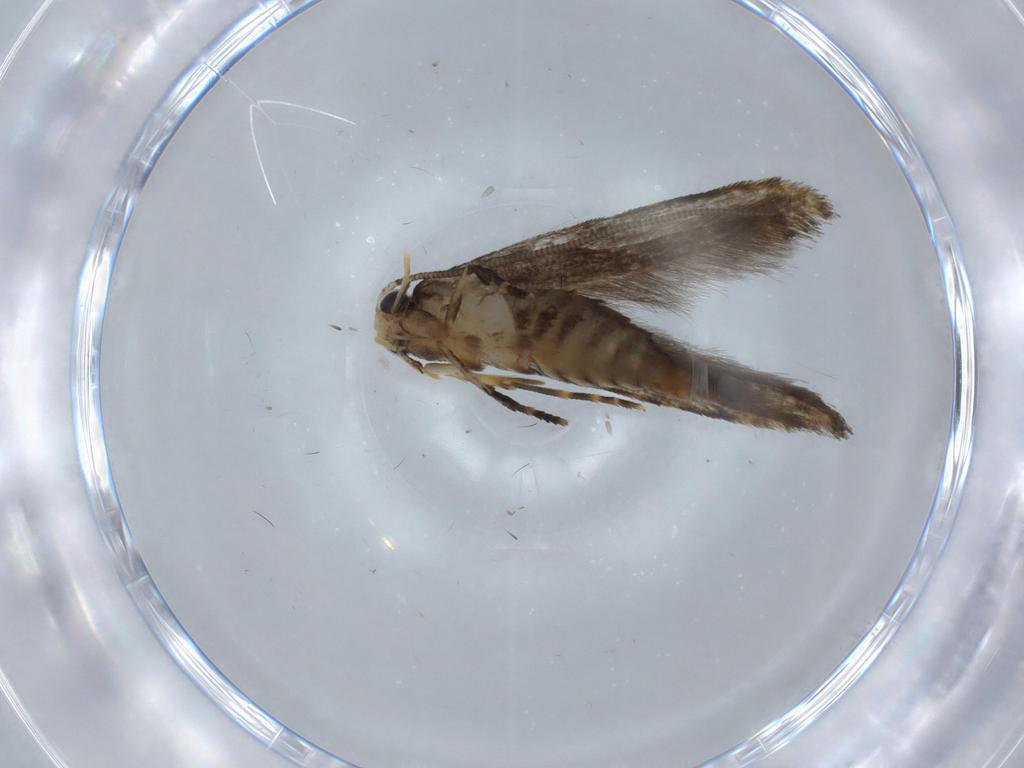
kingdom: Animalia
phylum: Arthropoda
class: Insecta
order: Lepidoptera
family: Tineidae
